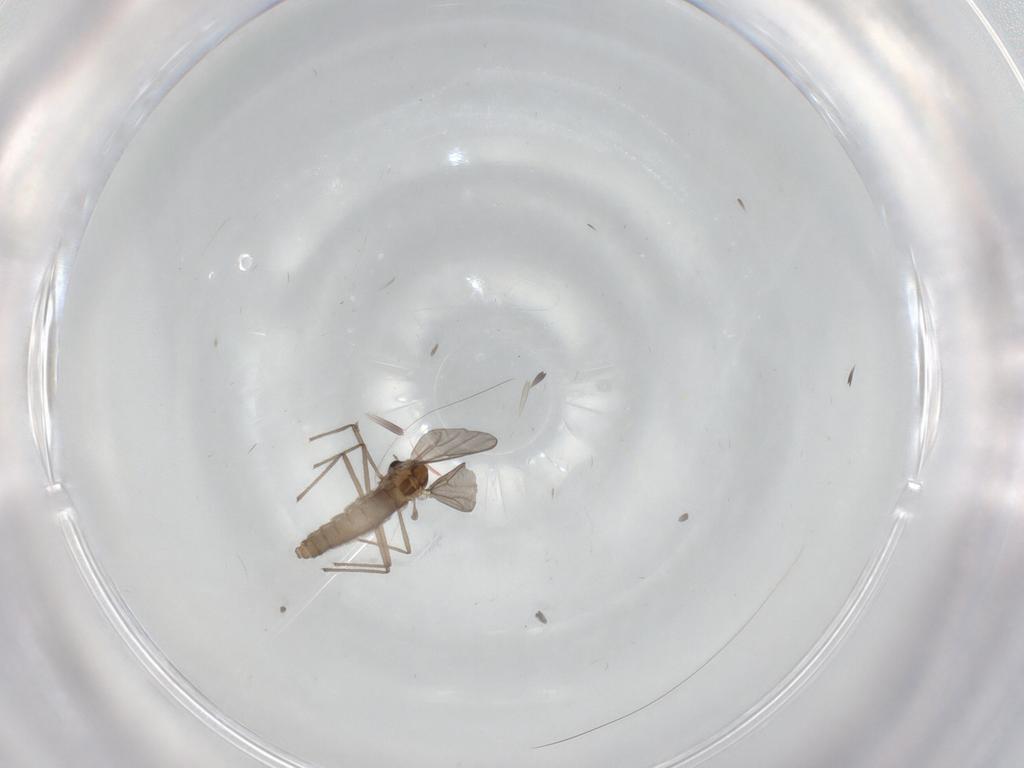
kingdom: Animalia
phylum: Arthropoda
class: Insecta
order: Diptera
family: Hybotidae
